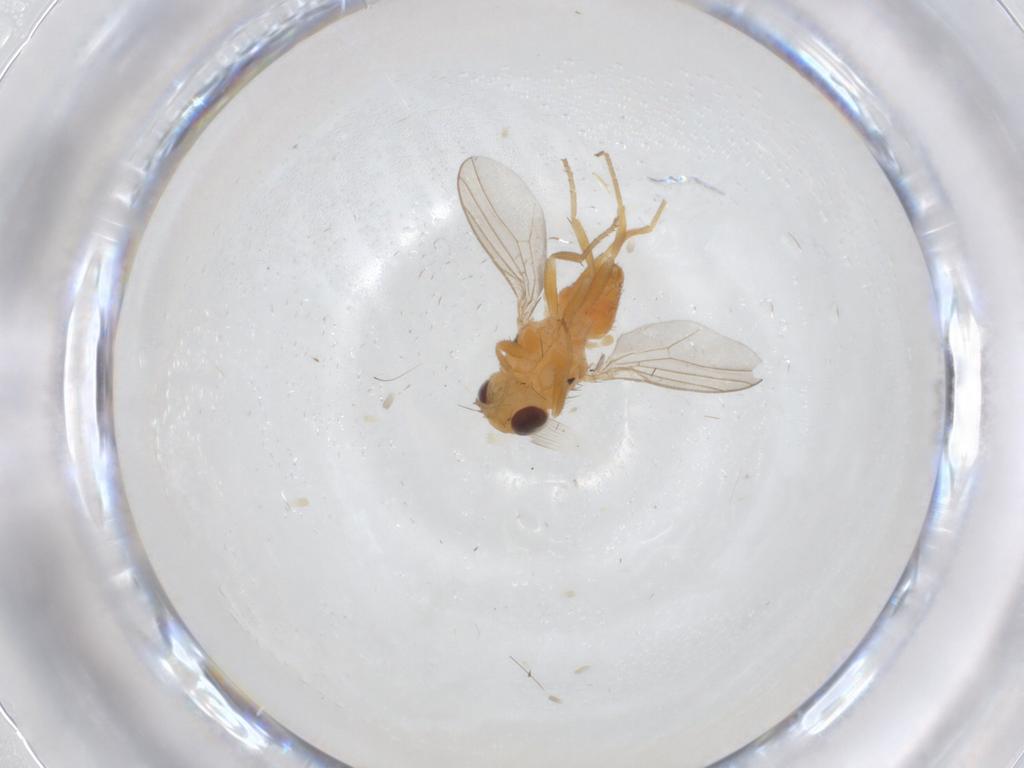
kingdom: Animalia
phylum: Arthropoda
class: Insecta
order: Diptera
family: Chloropidae
